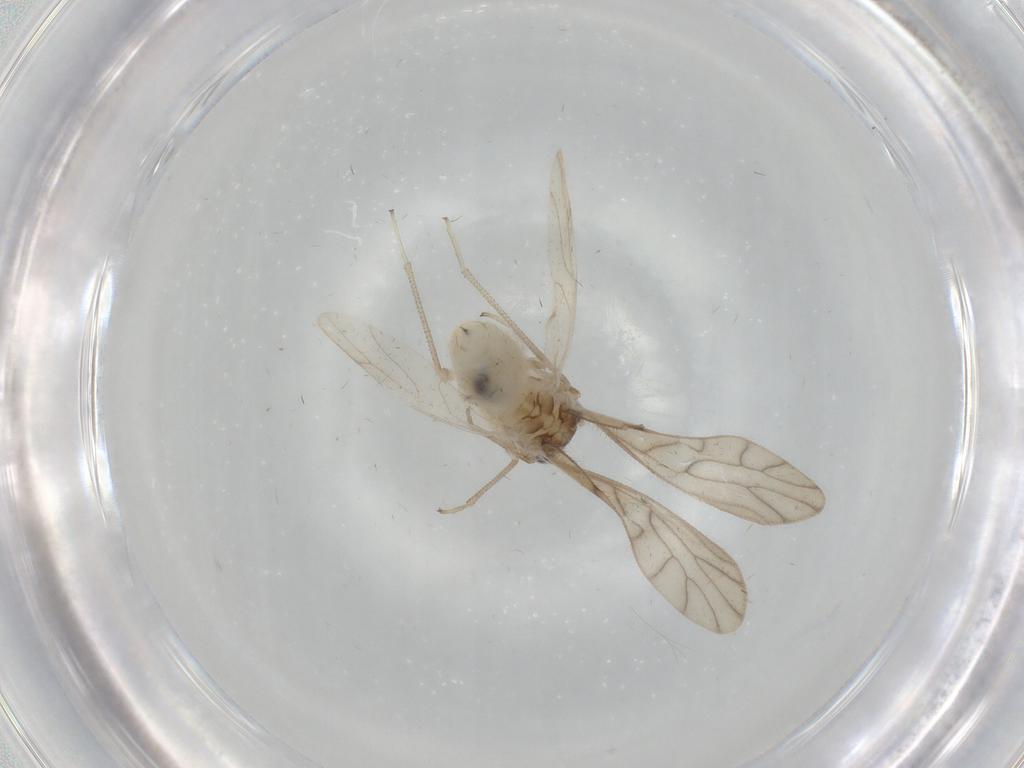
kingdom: Animalia
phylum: Arthropoda
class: Insecta
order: Psocodea
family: Caeciliusidae
